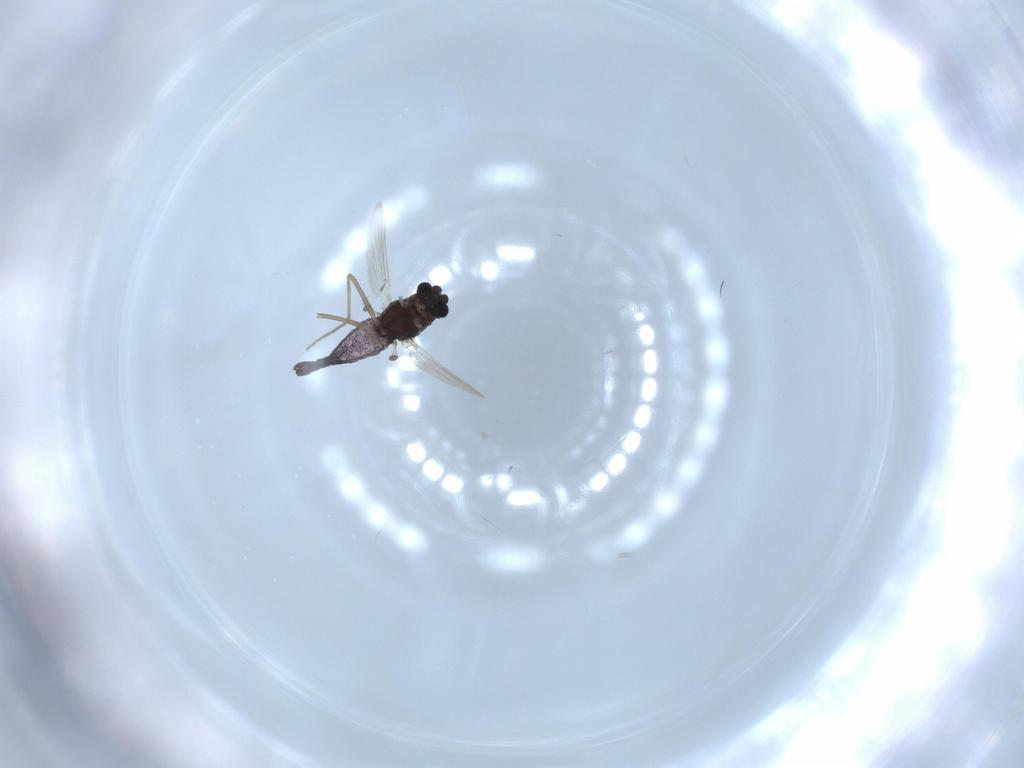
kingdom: Animalia
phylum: Arthropoda
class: Insecta
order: Diptera
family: Chironomidae
